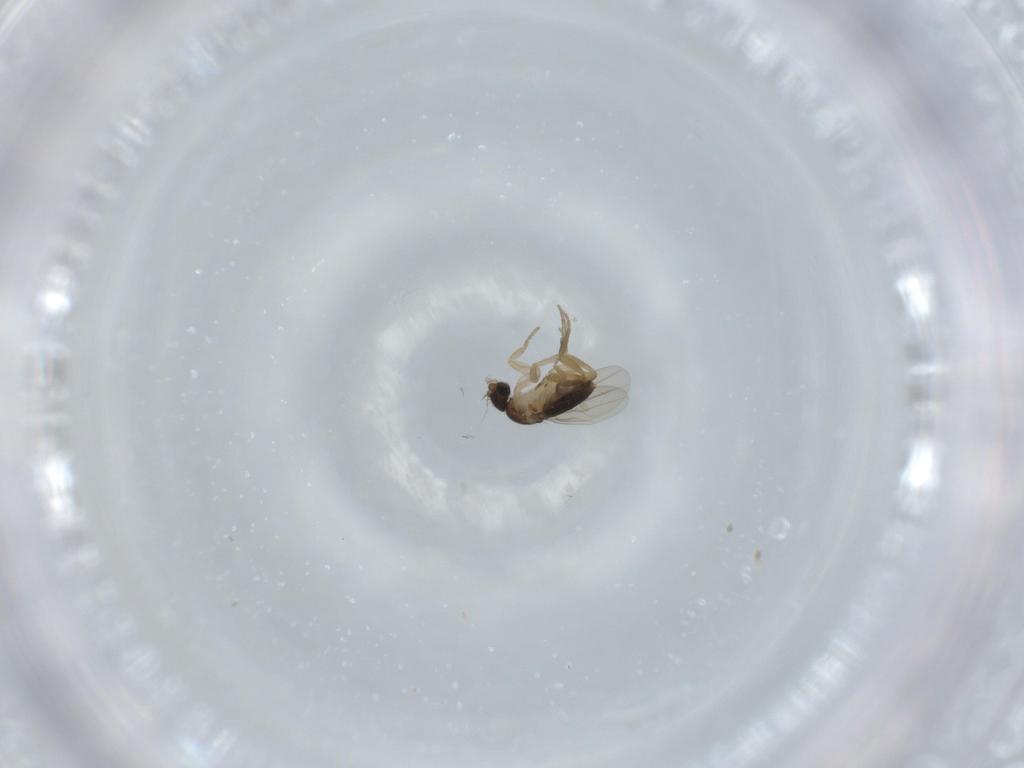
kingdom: Animalia
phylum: Arthropoda
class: Insecta
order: Diptera
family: Phoridae
